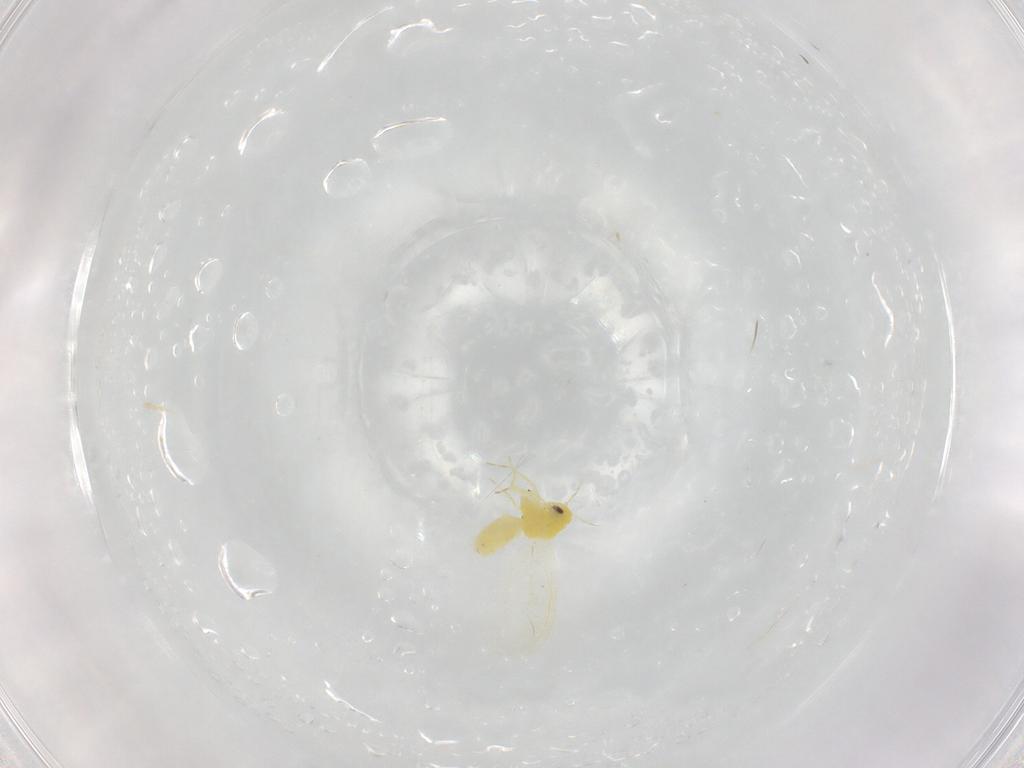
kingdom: Animalia
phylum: Arthropoda
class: Insecta
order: Hemiptera
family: Aleyrodidae
